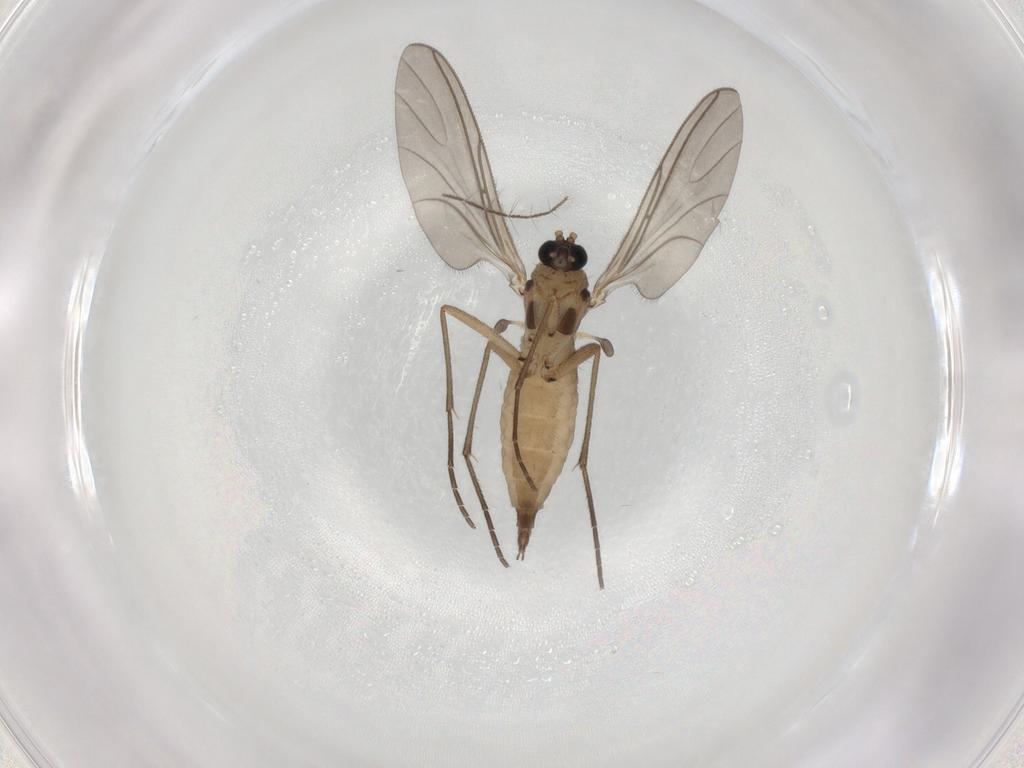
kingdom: Animalia
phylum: Arthropoda
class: Insecta
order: Diptera
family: Sciaridae
